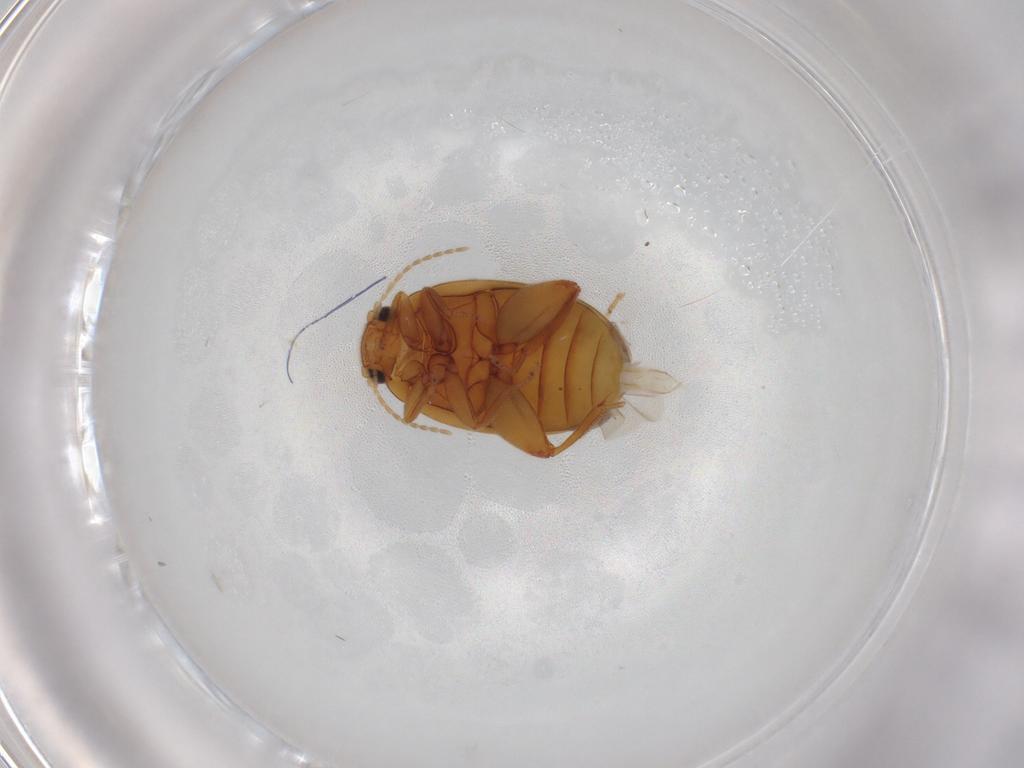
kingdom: Animalia
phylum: Arthropoda
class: Insecta
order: Coleoptera
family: Scirtidae
